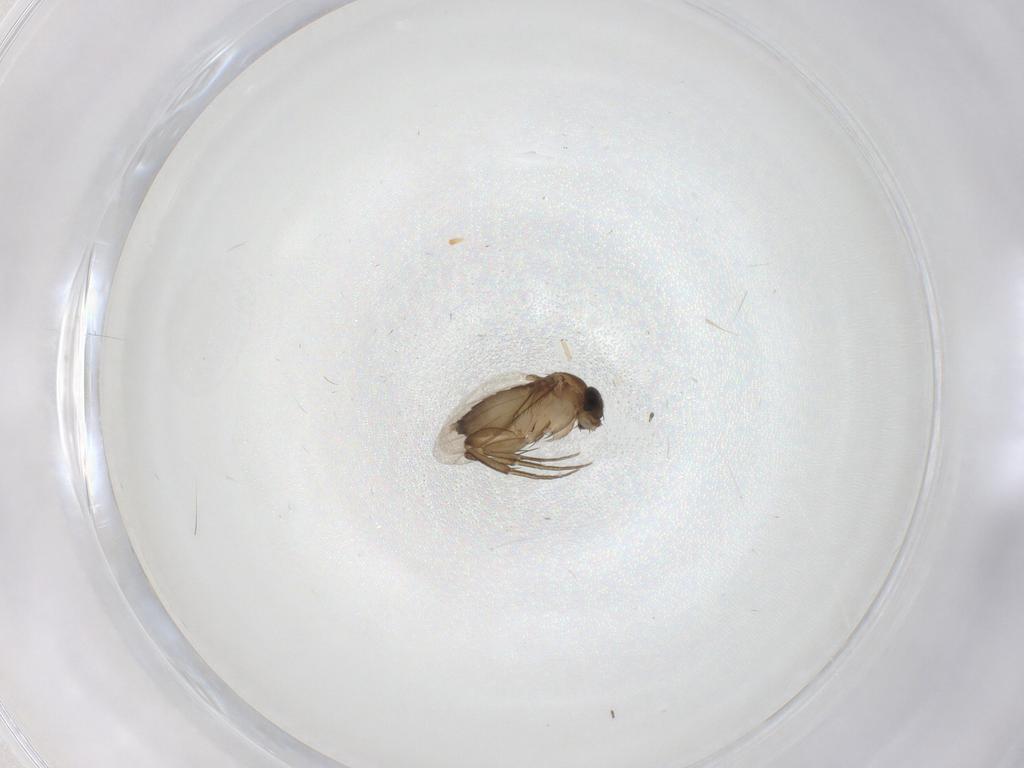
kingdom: Animalia
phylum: Arthropoda
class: Insecta
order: Diptera
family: Phoridae
